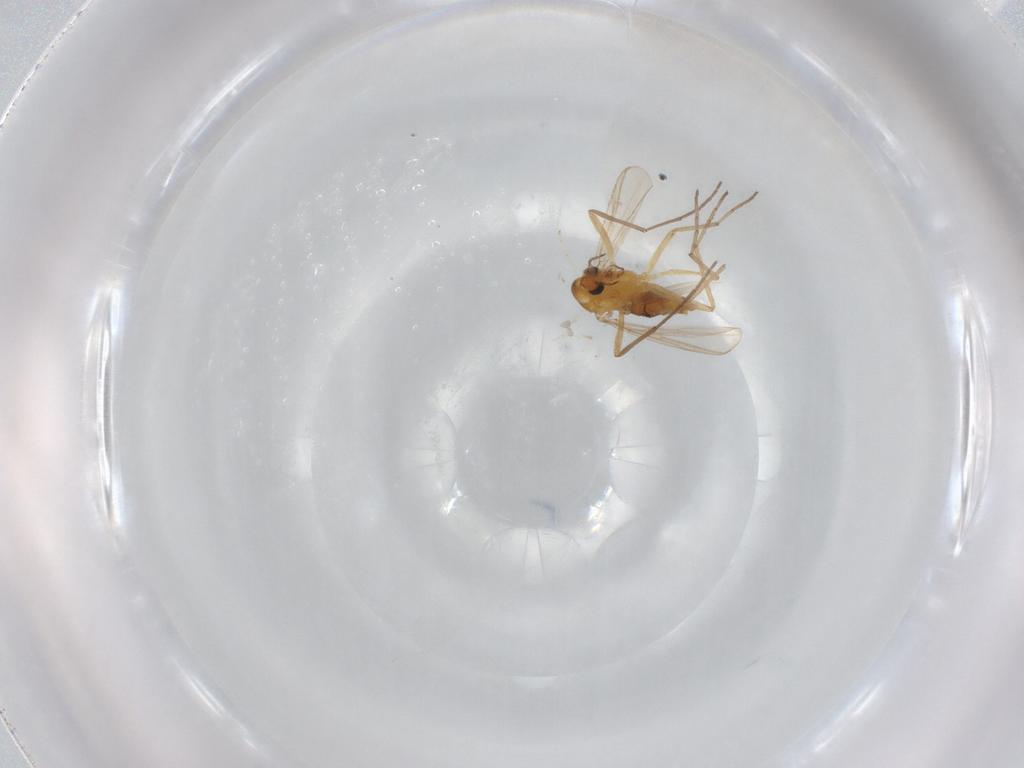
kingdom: Animalia
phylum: Arthropoda
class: Insecta
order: Diptera
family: Chironomidae
